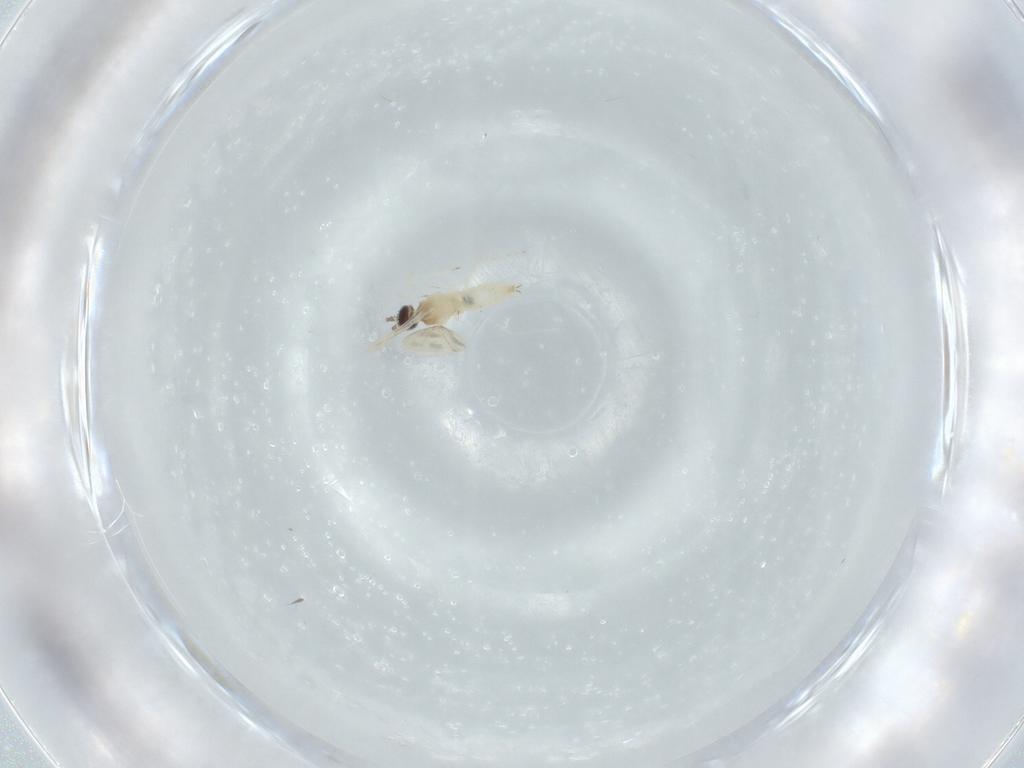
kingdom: Animalia
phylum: Arthropoda
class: Insecta
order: Diptera
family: Cecidomyiidae
